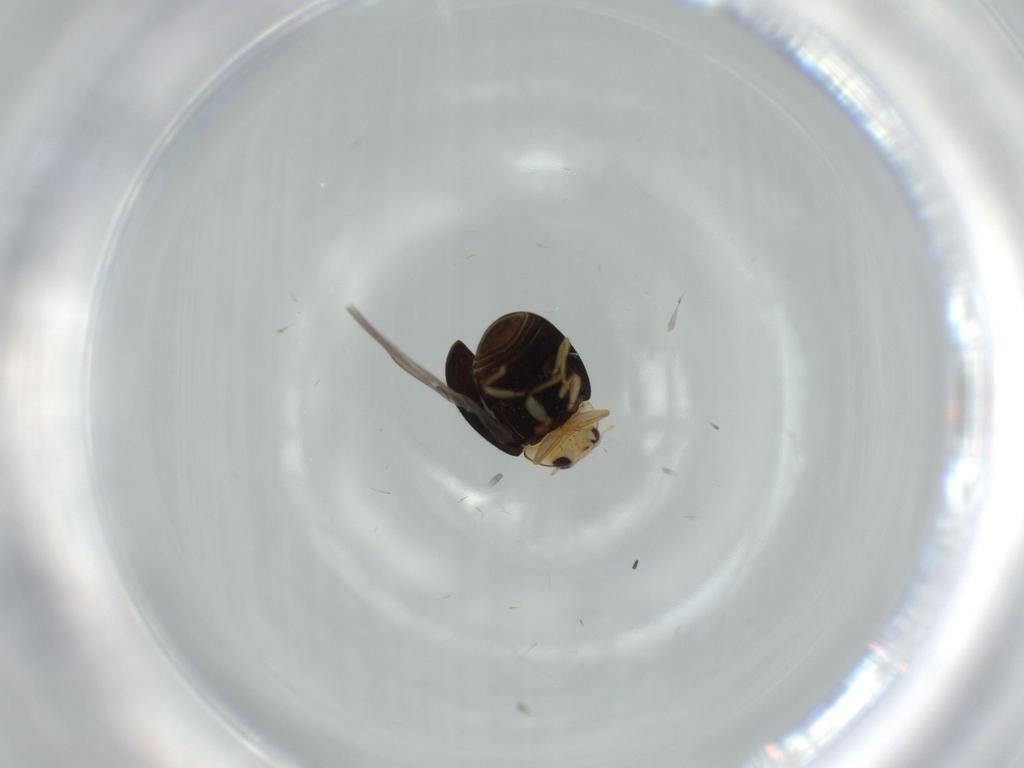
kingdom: Animalia
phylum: Arthropoda
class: Insecta
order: Coleoptera
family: Coccinellidae
